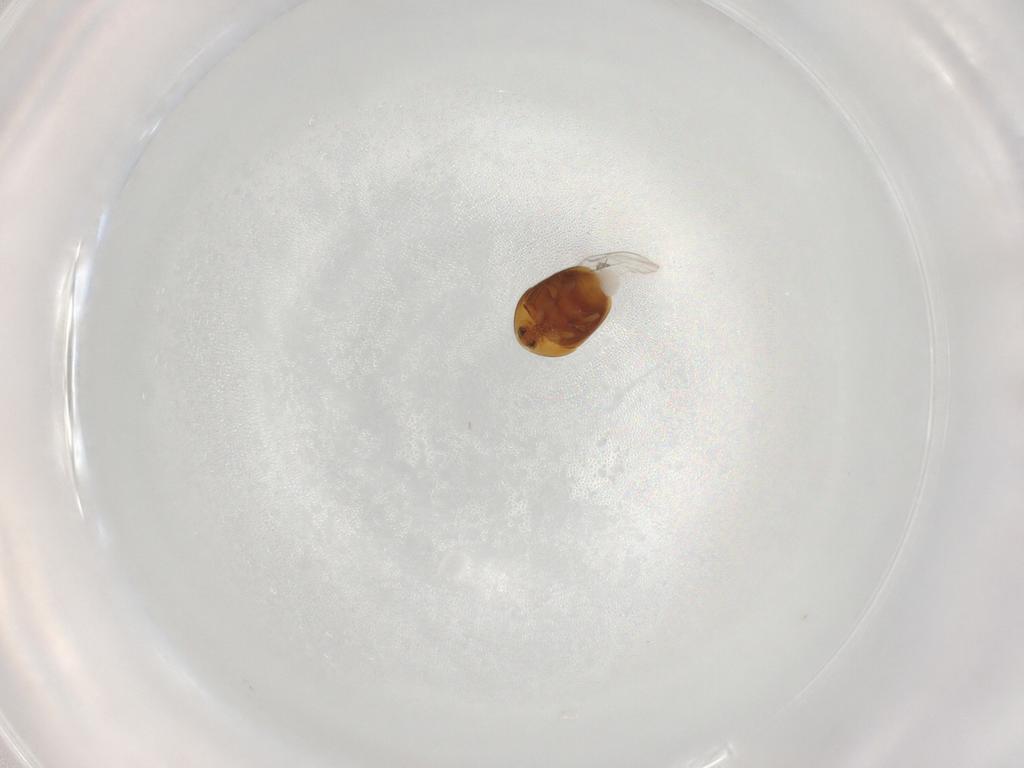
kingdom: Animalia
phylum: Arthropoda
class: Insecta
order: Coleoptera
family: Corylophidae
